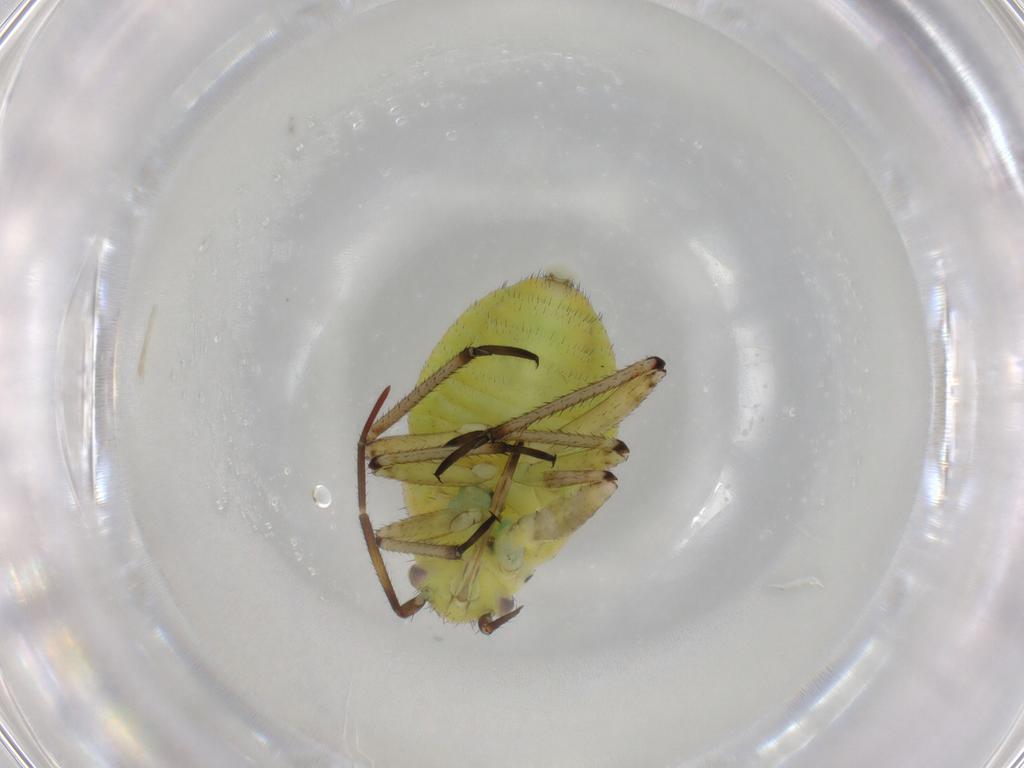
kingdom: Animalia
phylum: Arthropoda
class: Insecta
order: Hemiptera
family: Miridae
